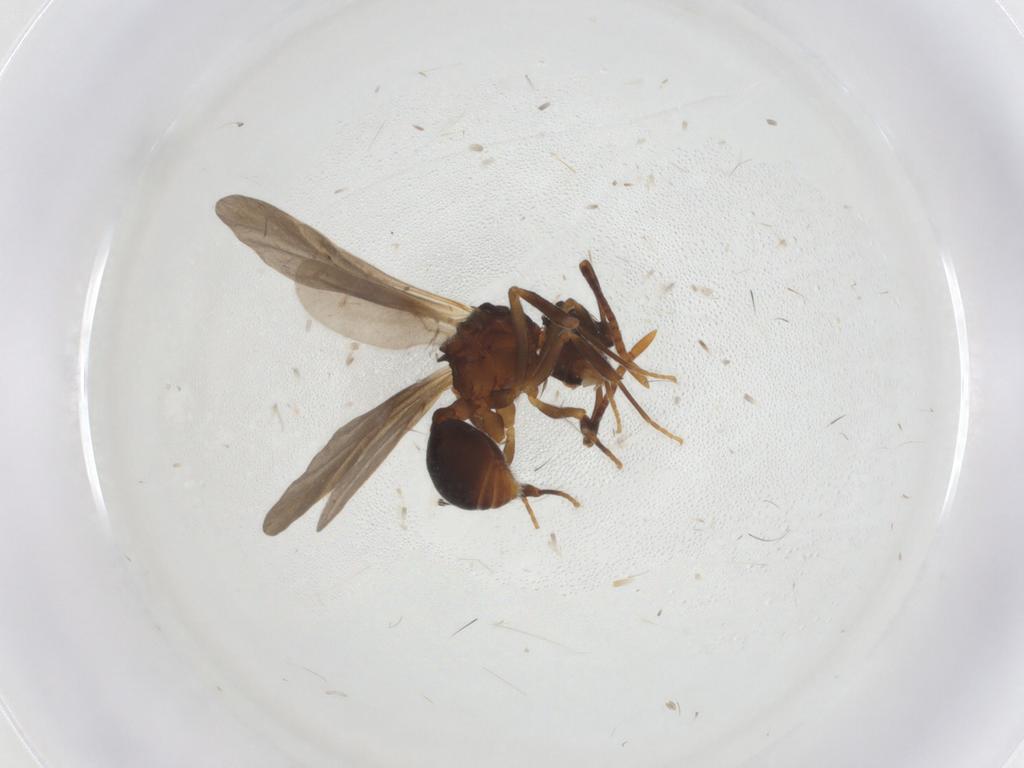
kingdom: Animalia
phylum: Arthropoda
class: Insecta
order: Hymenoptera
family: Formicidae
